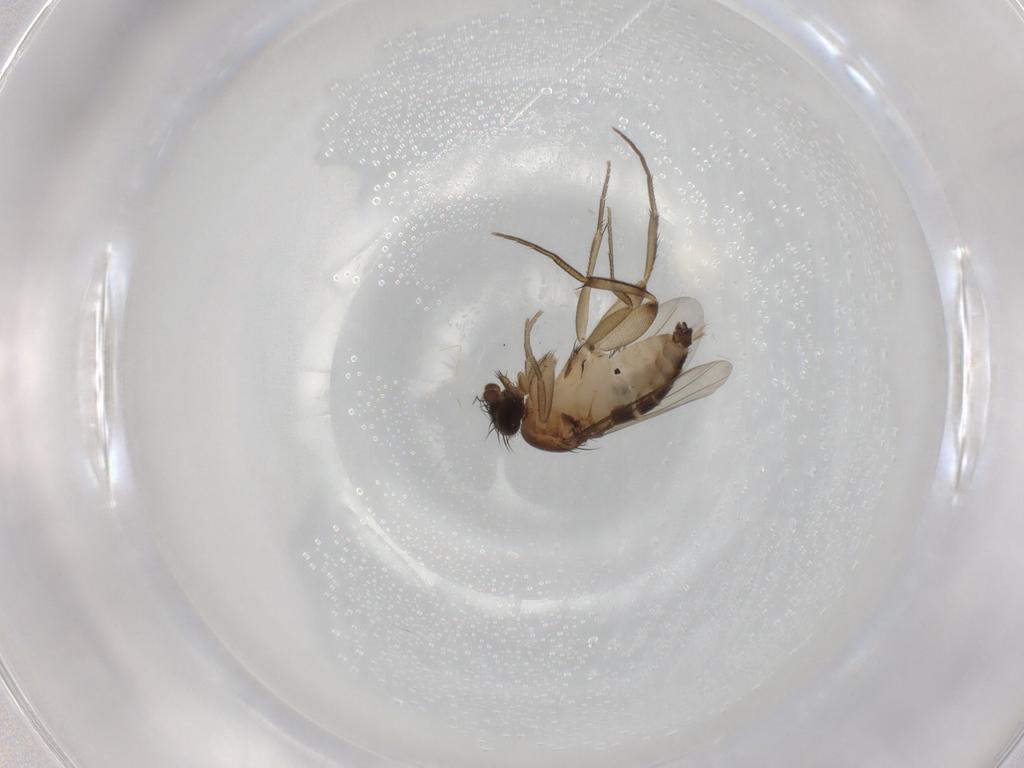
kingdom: Animalia
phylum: Arthropoda
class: Insecta
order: Diptera
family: Phoridae
